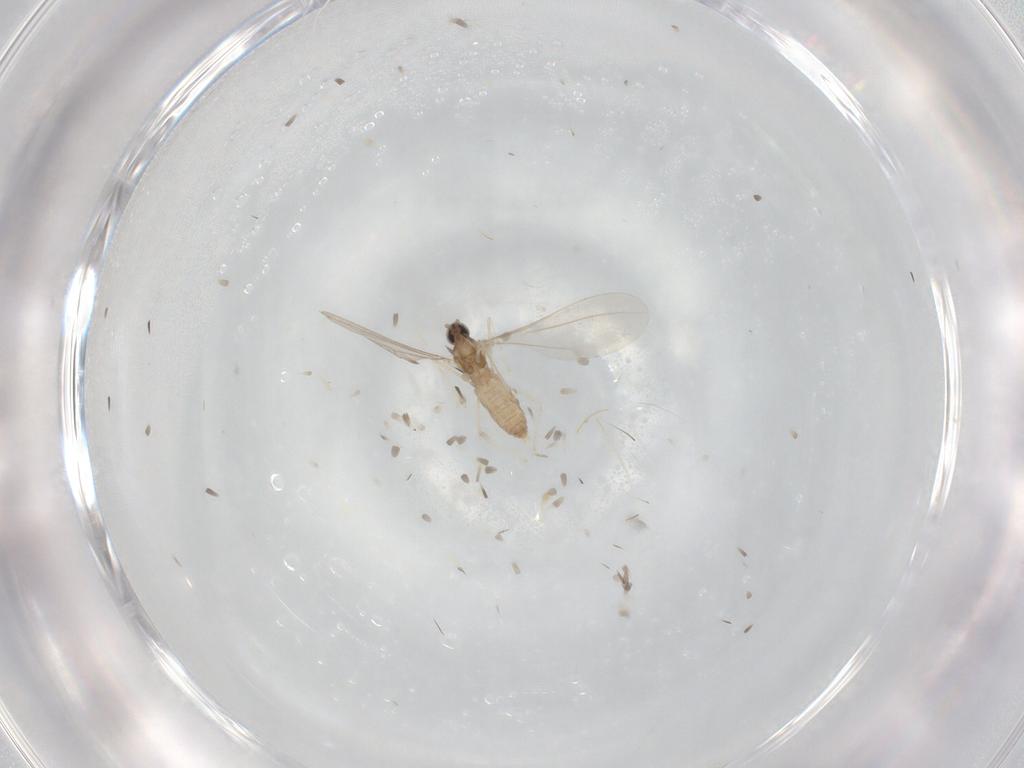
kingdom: Animalia
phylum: Arthropoda
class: Insecta
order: Diptera
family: Cecidomyiidae
